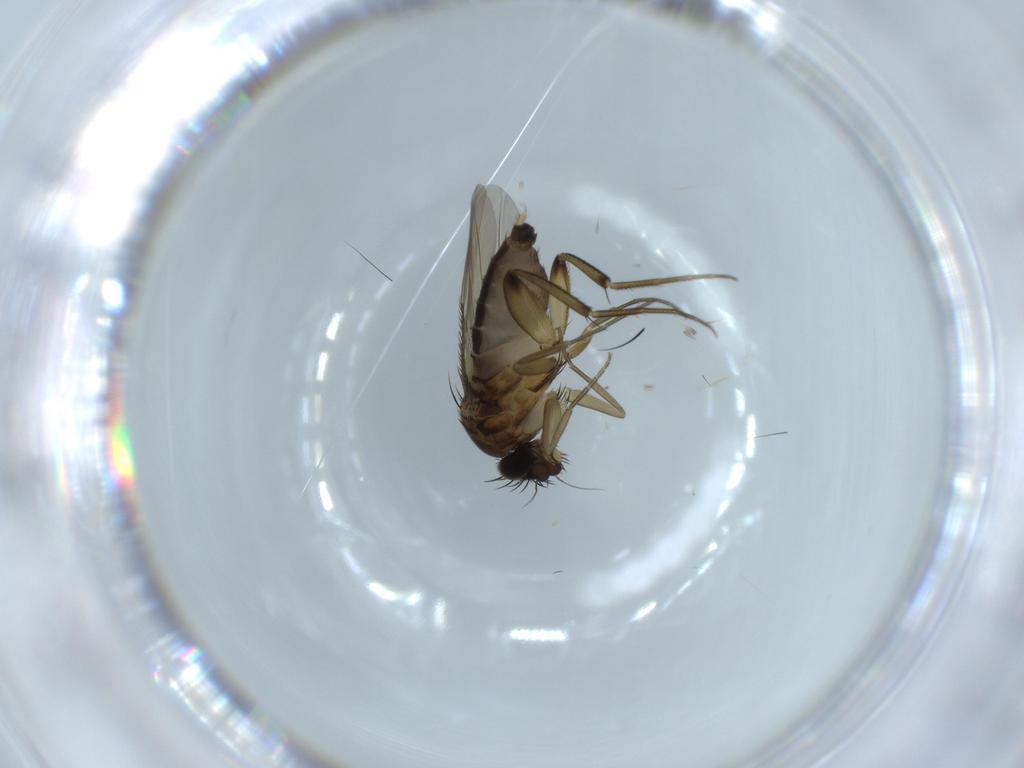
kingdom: Animalia
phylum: Arthropoda
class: Insecta
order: Diptera
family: Phoridae
